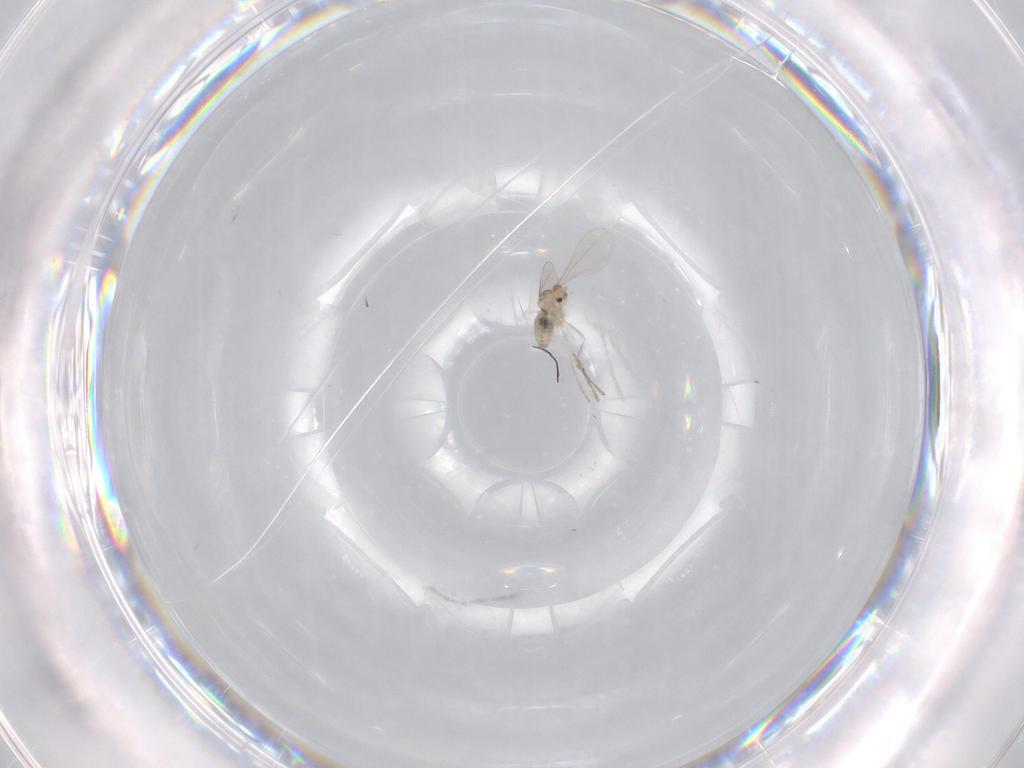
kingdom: Animalia
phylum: Arthropoda
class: Insecta
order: Diptera
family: Cecidomyiidae
